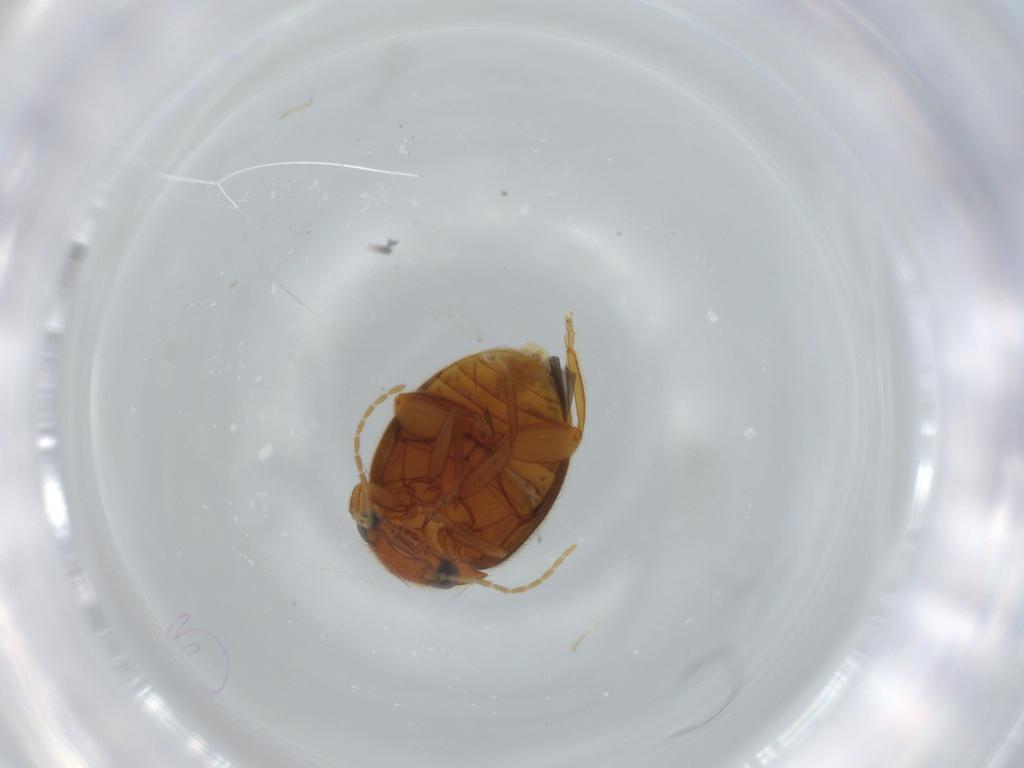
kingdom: Animalia
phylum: Arthropoda
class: Insecta
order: Coleoptera
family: Scirtidae
